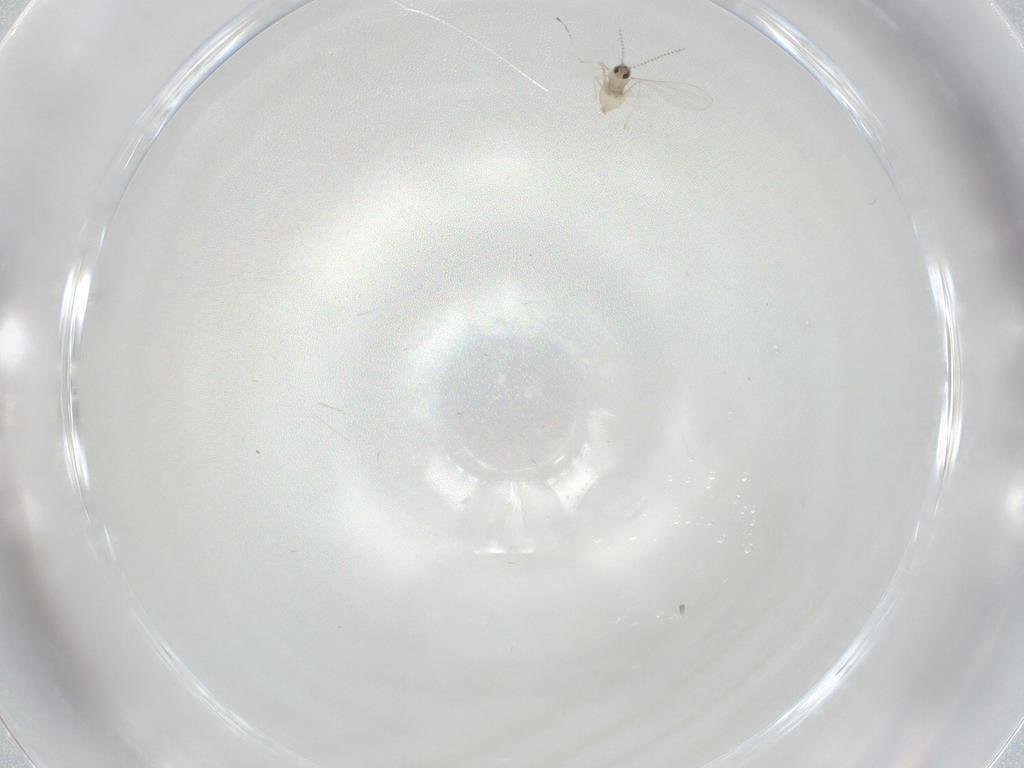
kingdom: Animalia
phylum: Arthropoda
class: Insecta
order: Diptera
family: Cecidomyiidae
